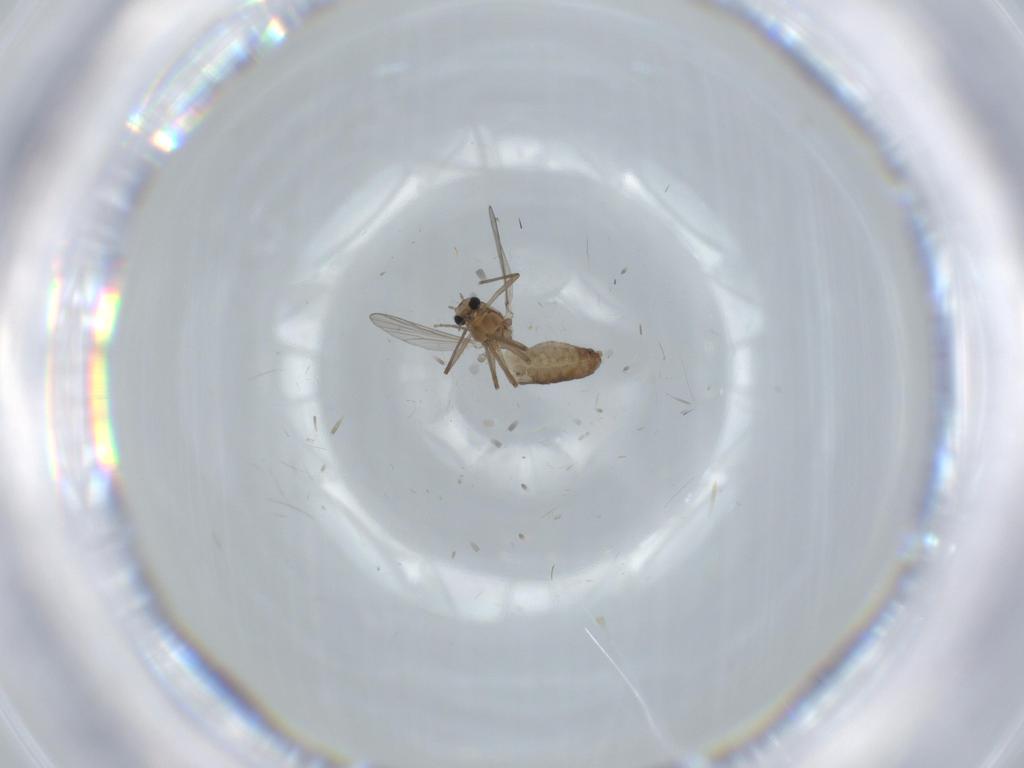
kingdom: Animalia
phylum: Arthropoda
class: Insecta
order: Diptera
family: Chironomidae
